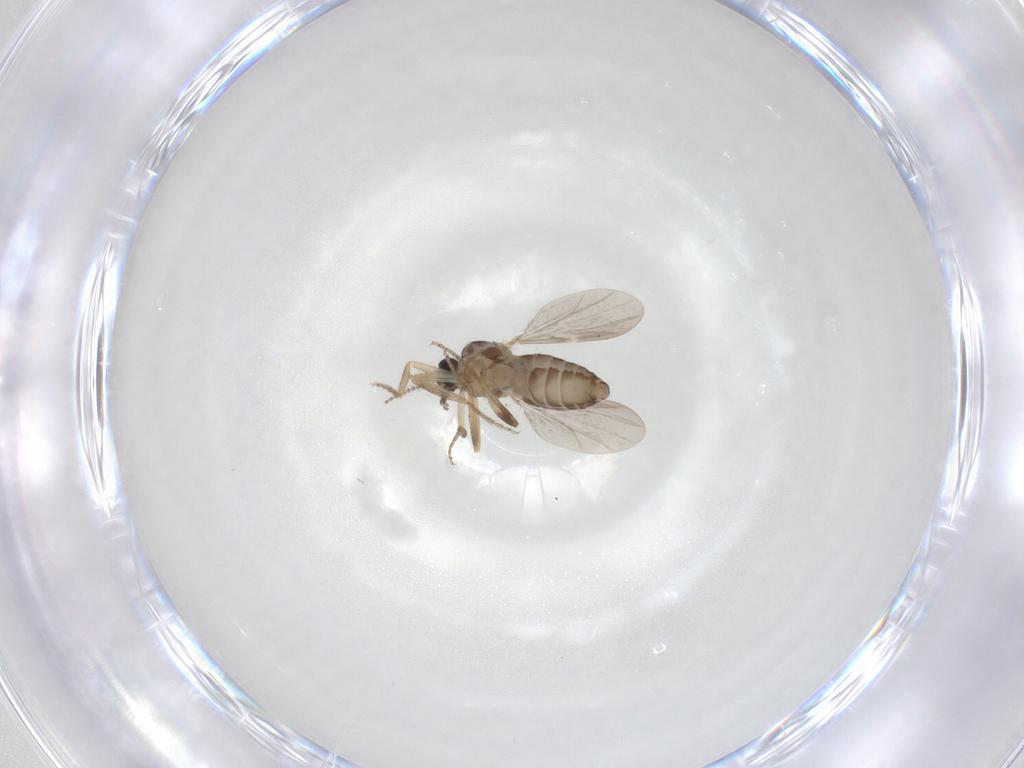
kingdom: Animalia
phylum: Arthropoda
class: Insecta
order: Diptera
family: Ceratopogonidae
